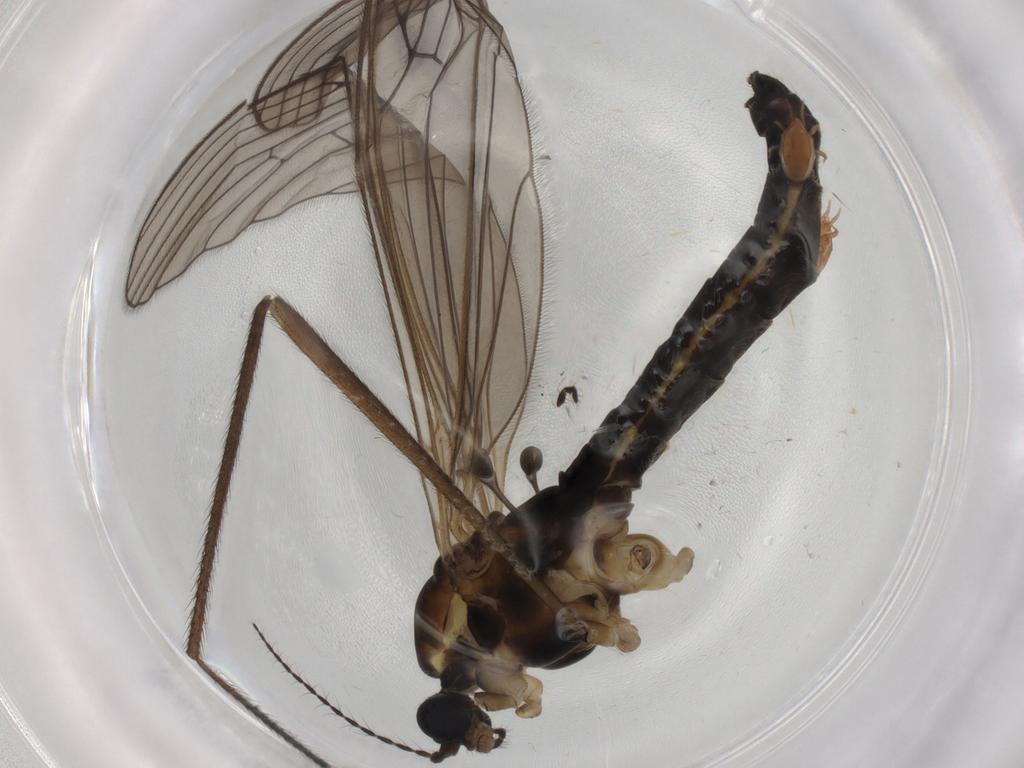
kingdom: Animalia
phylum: Arthropoda
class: Insecta
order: Diptera
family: Limoniidae
